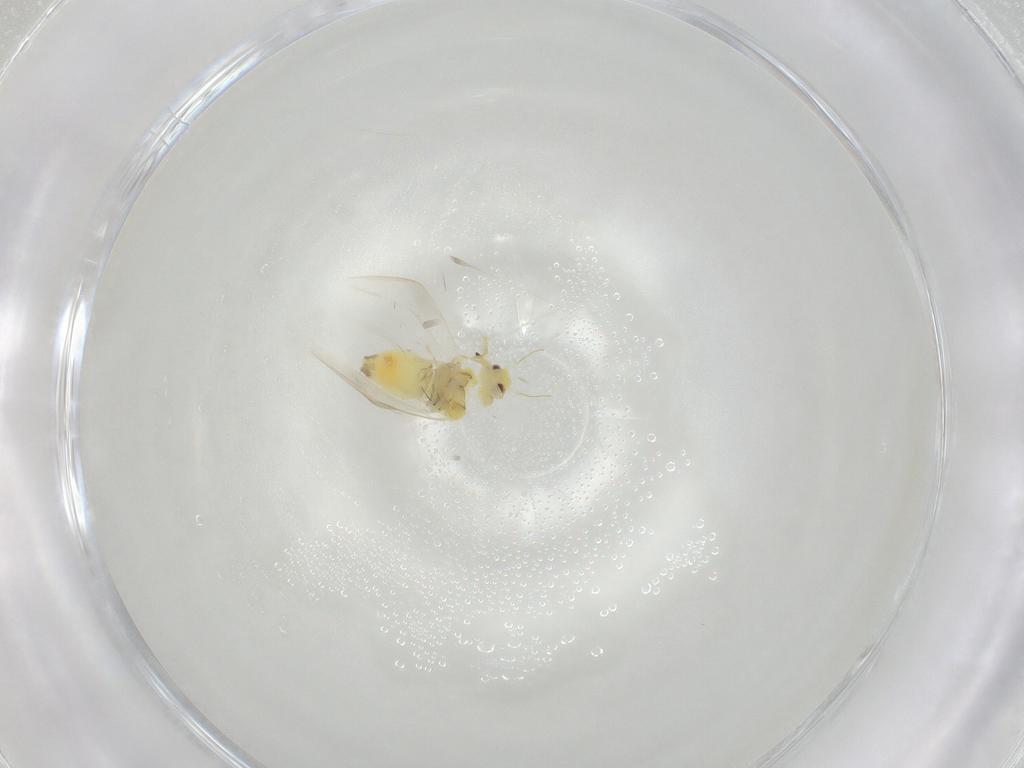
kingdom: Animalia
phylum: Arthropoda
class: Insecta
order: Hemiptera
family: Aleyrodidae
